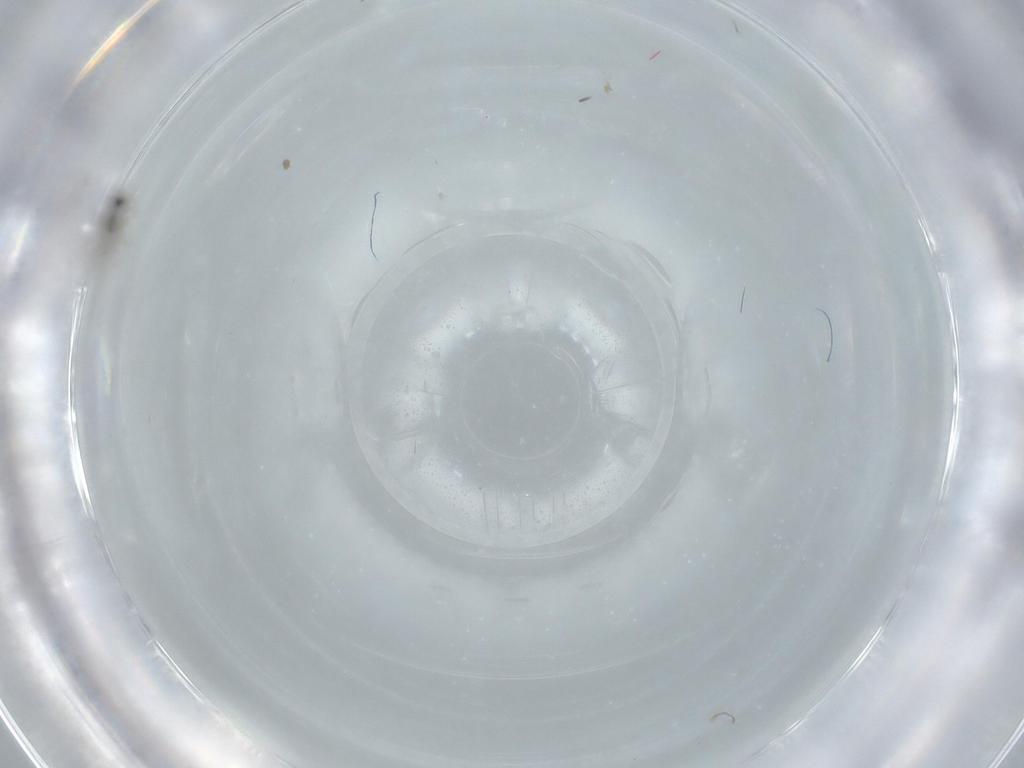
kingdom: Animalia
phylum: Arthropoda
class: Insecta
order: Diptera
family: Cecidomyiidae
